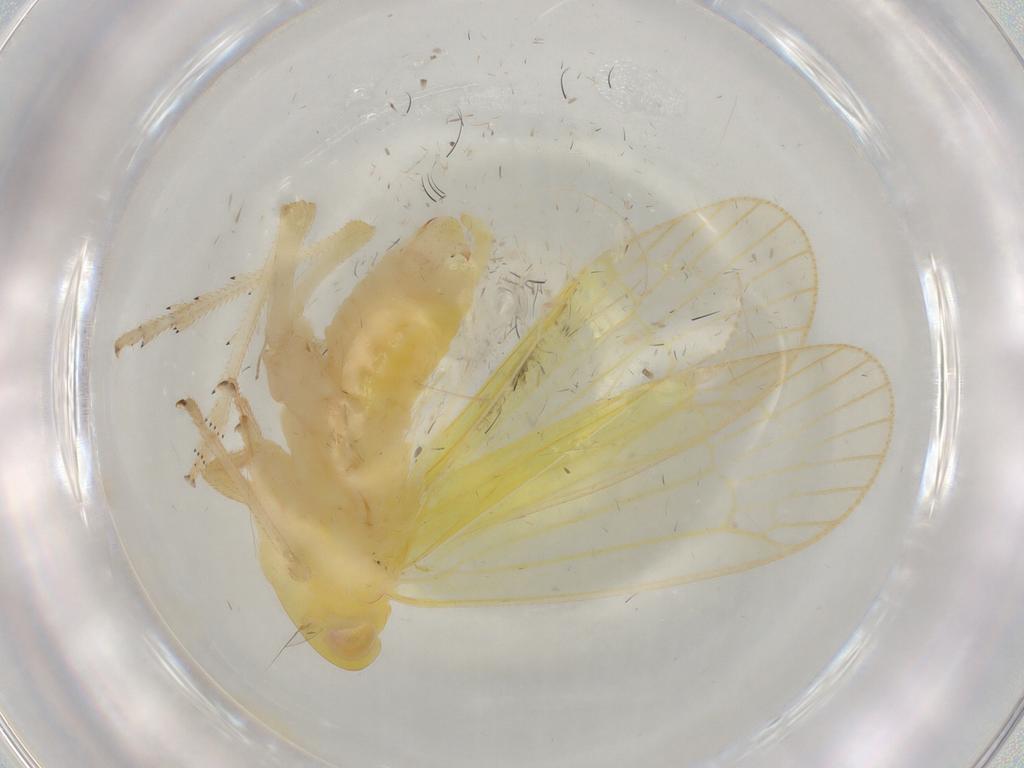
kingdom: Animalia
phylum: Arthropoda
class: Insecta
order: Hemiptera
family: Tropiduchidae
